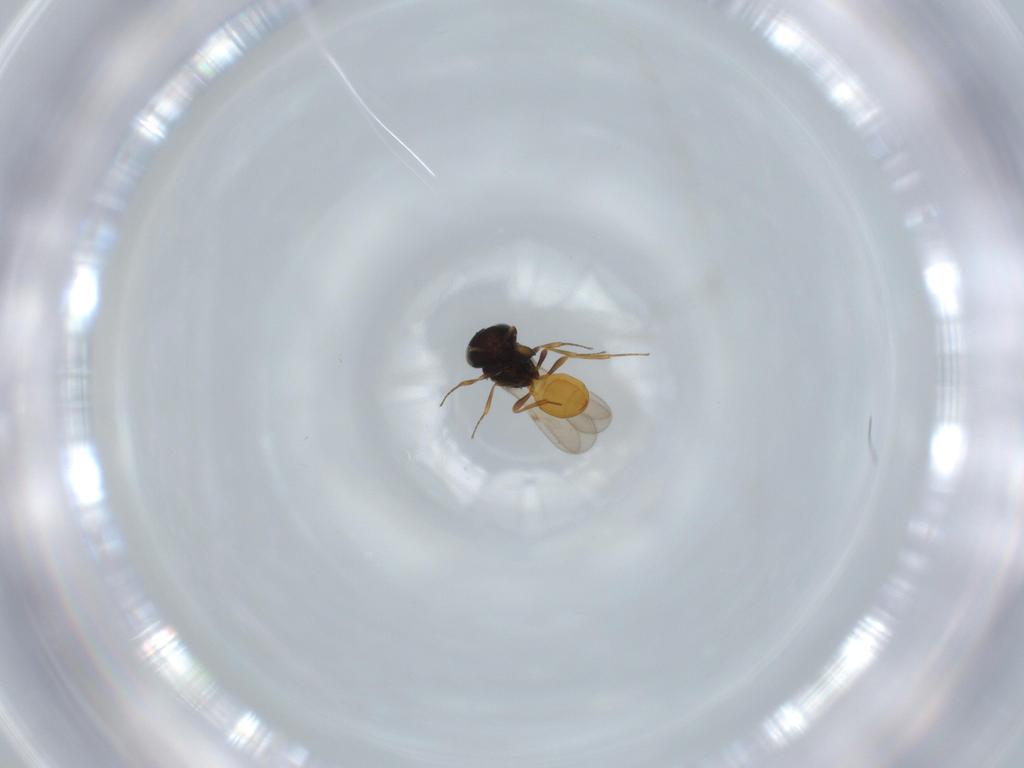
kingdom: Animalia
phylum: Arthropoda
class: Insecta
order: Hymenoptera
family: Scelionidae
